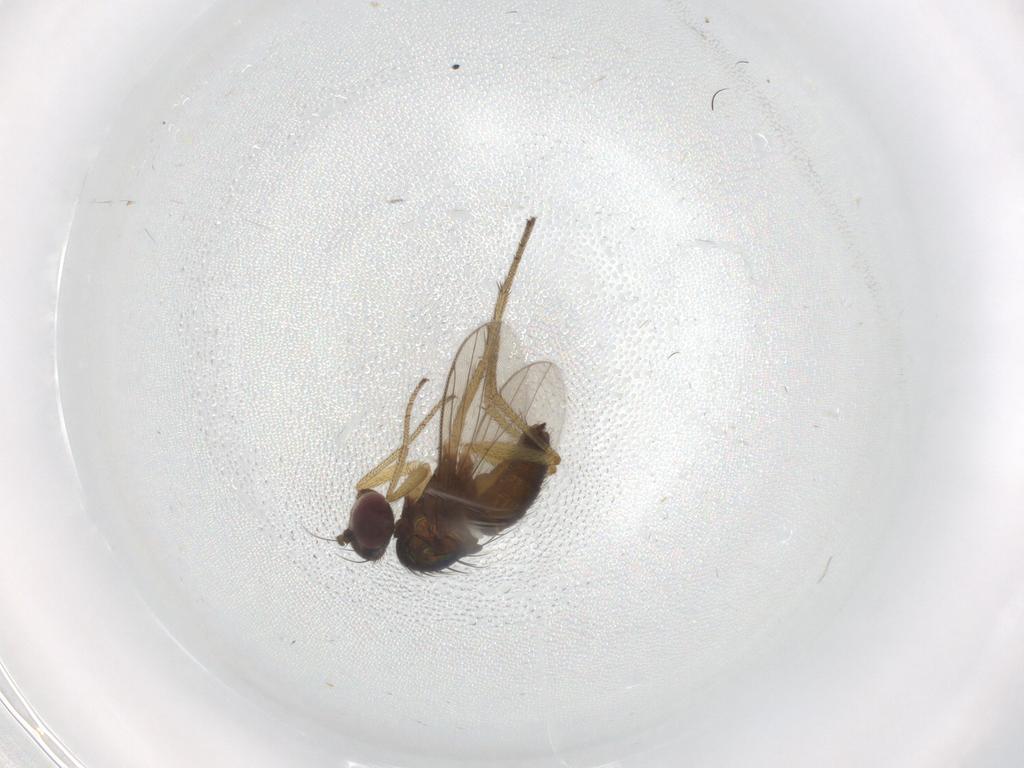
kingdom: Animalia
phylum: Arthropoda
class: Insecta
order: Diptera
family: Dolichopodidae
